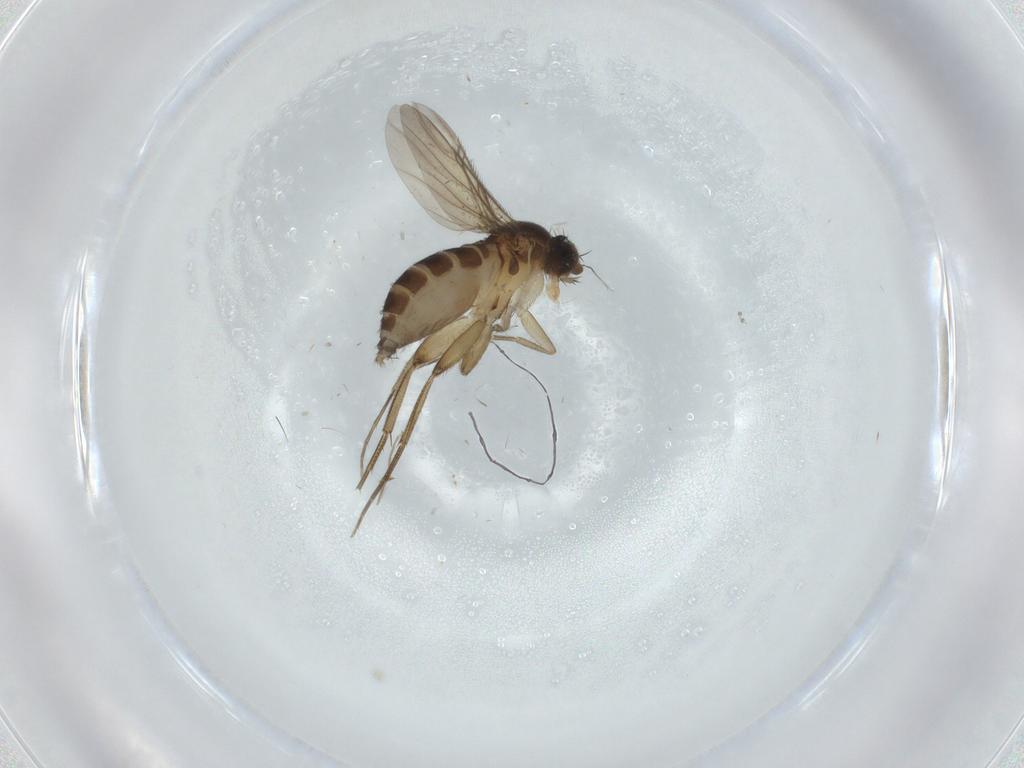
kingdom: Animalia
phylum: Arthropoda
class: Insecta
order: Diptera
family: Phoridae
